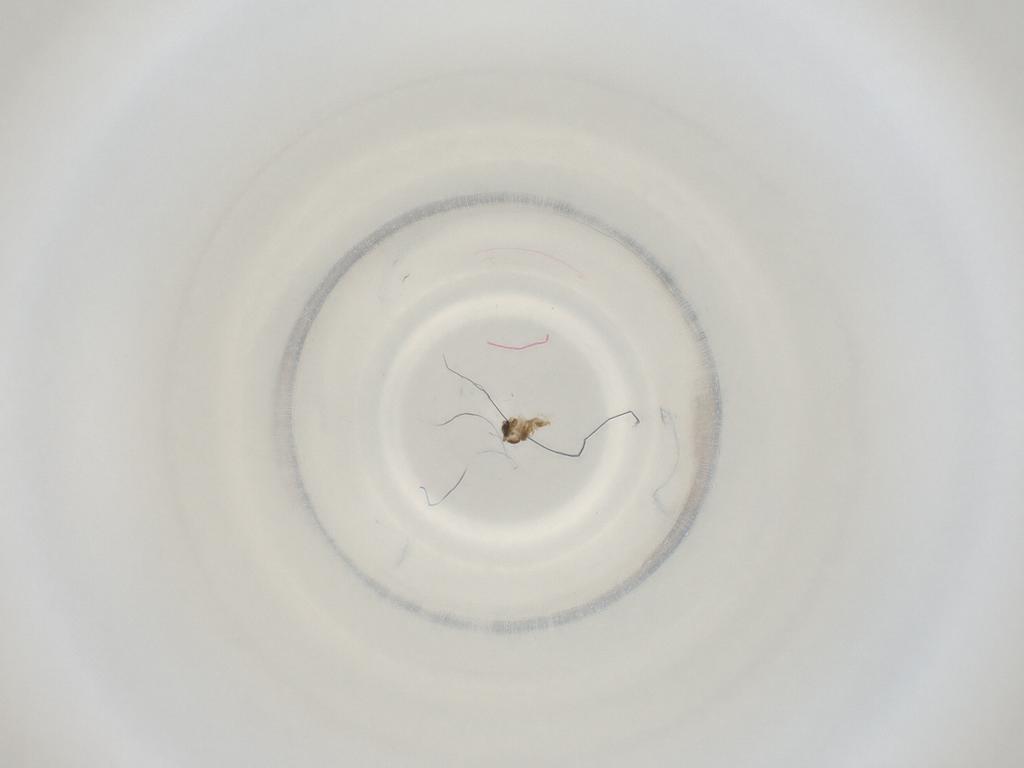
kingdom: Animalia
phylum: Arthropoda
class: Insecta
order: Diptera
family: Cecidomyiidae
